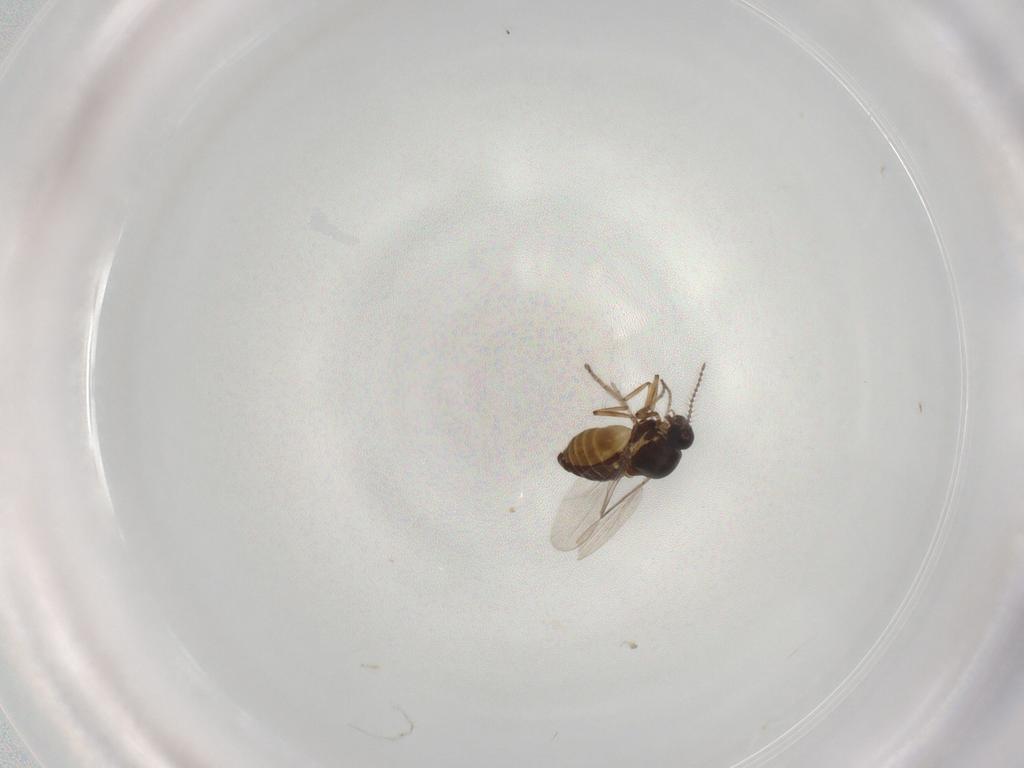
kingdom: Animalia
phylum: Arthropoda
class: Insecta
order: Diptera
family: Ceratopogonidae
